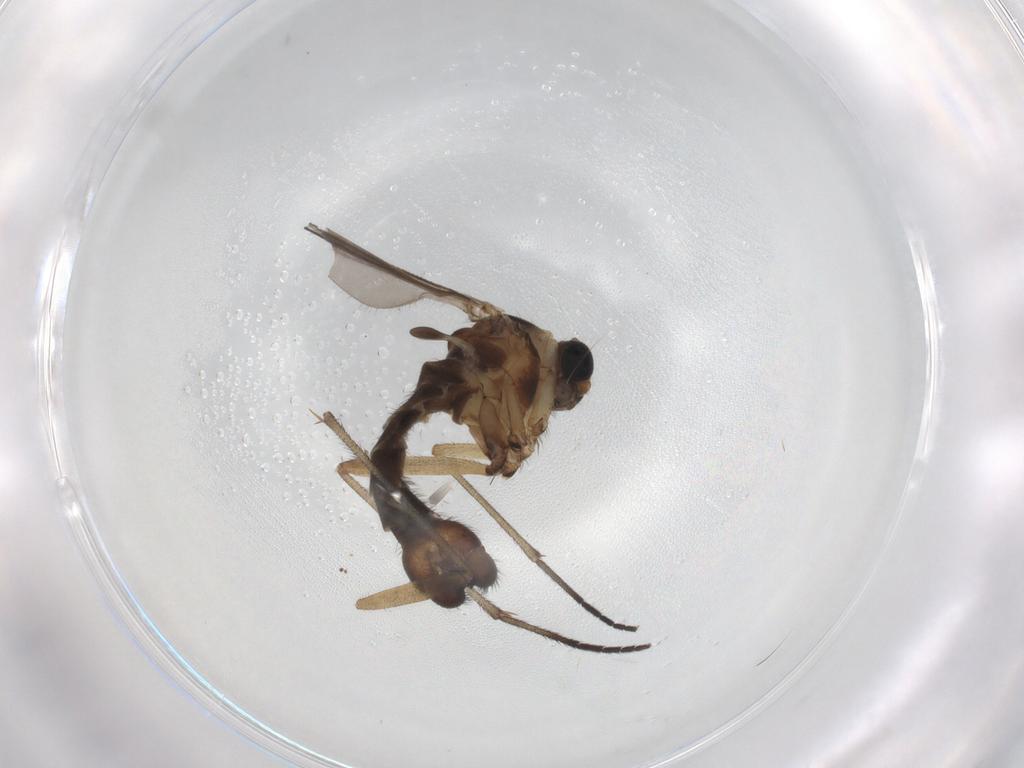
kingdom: Animalia
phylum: Arthropoda
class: Insecta
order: Diptera
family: Sciaridae
